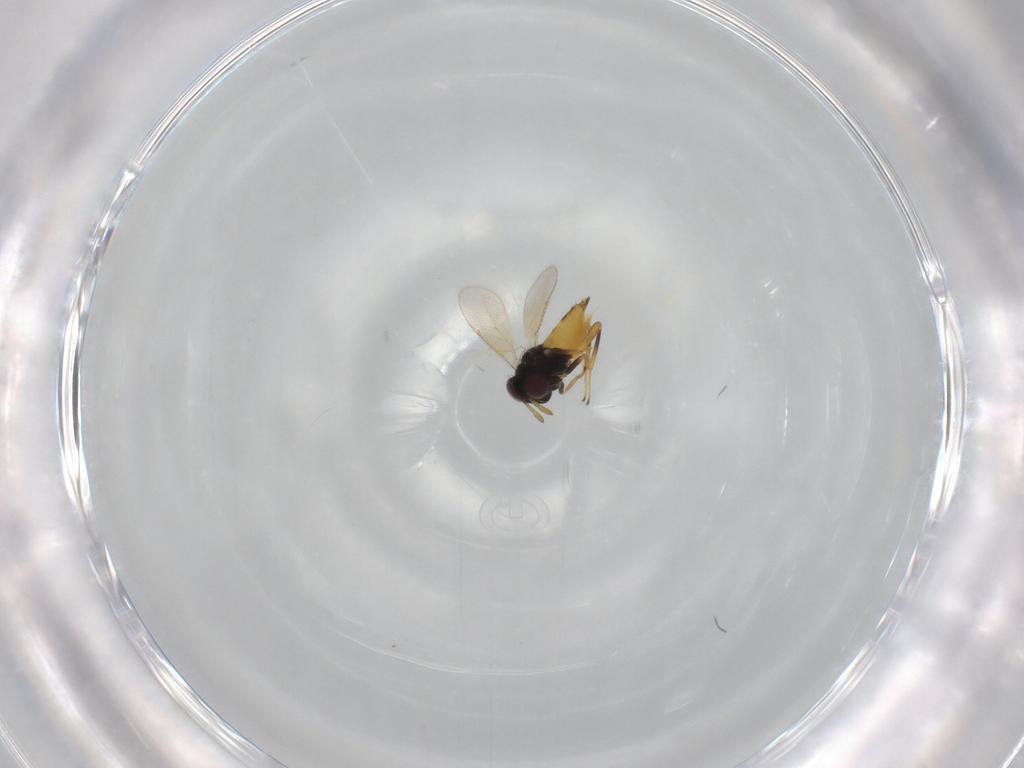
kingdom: Animalia
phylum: Arthropoda
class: Insecta
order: Hymenoptera
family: Aphelinidae
